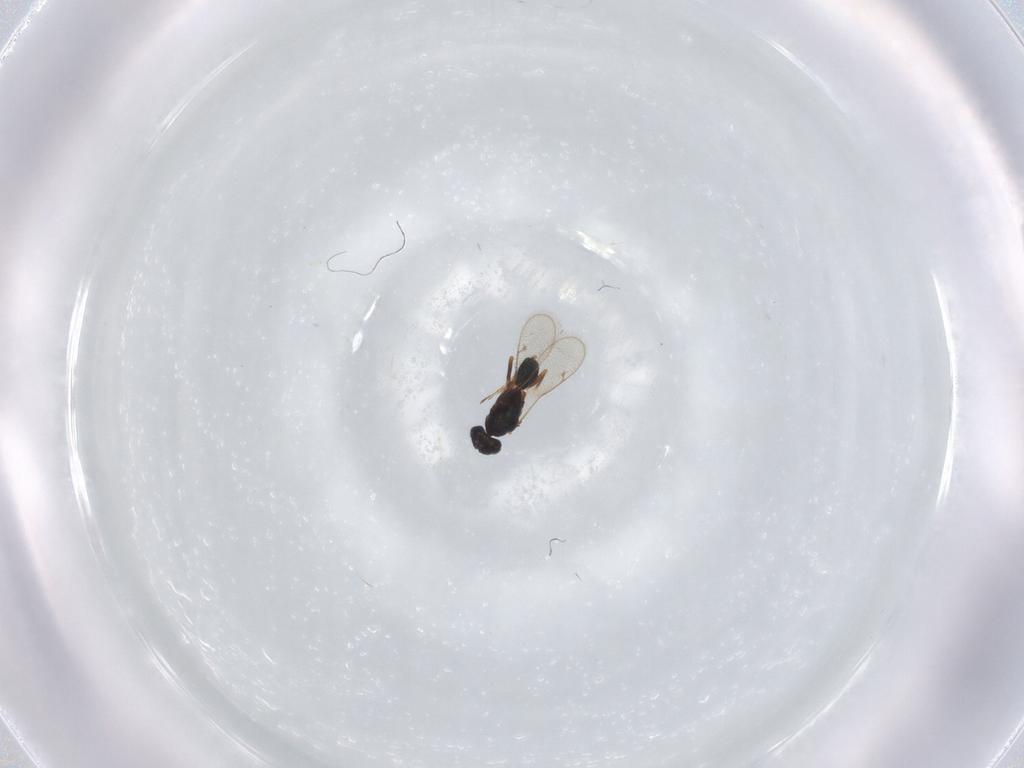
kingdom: Animalia
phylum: Arthropoda
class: Insecta
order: Hymenoptera
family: Diparidae
